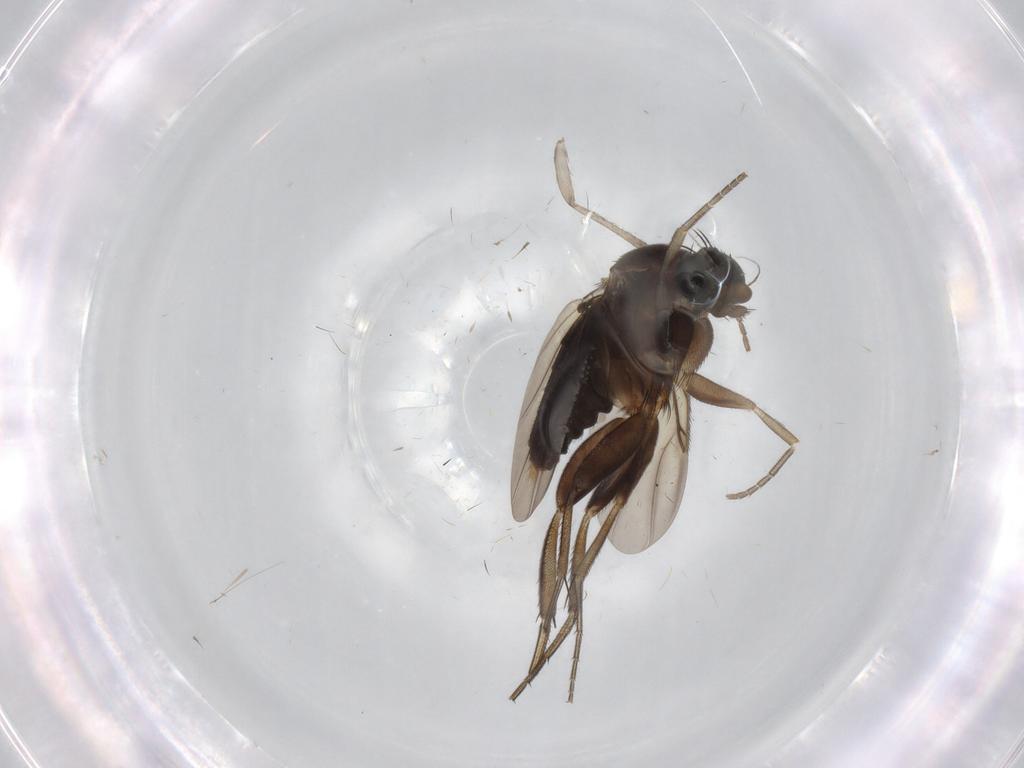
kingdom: Animalia
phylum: Arthropoda
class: Insecta
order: Diptera
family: Phoridae
